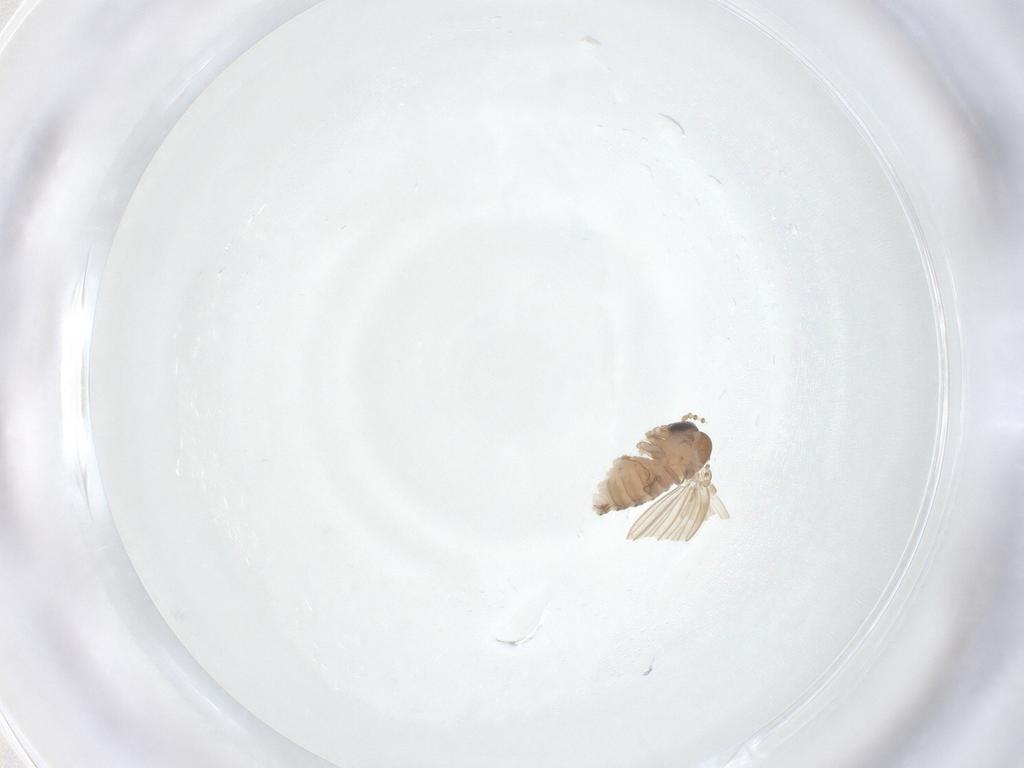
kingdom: Animalia
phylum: Arthropoda
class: Insecta
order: Diptera
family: Psychodidae
